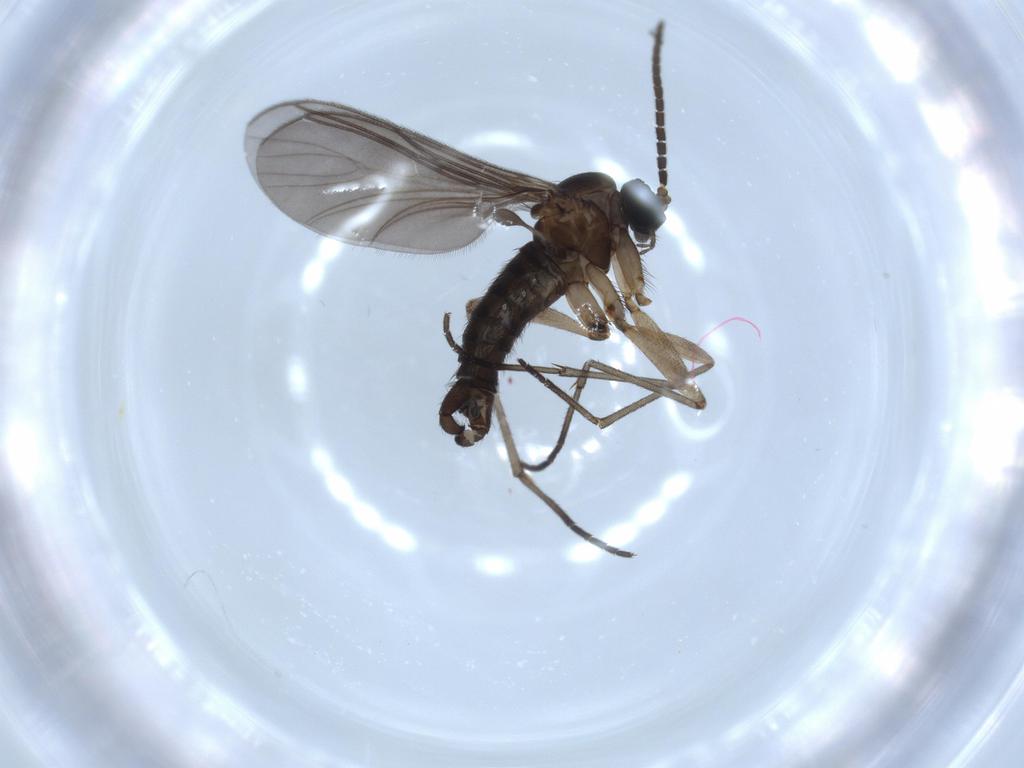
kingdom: Animalia
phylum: Arthropoda
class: Insecta
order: Diptera
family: Sciaridae
